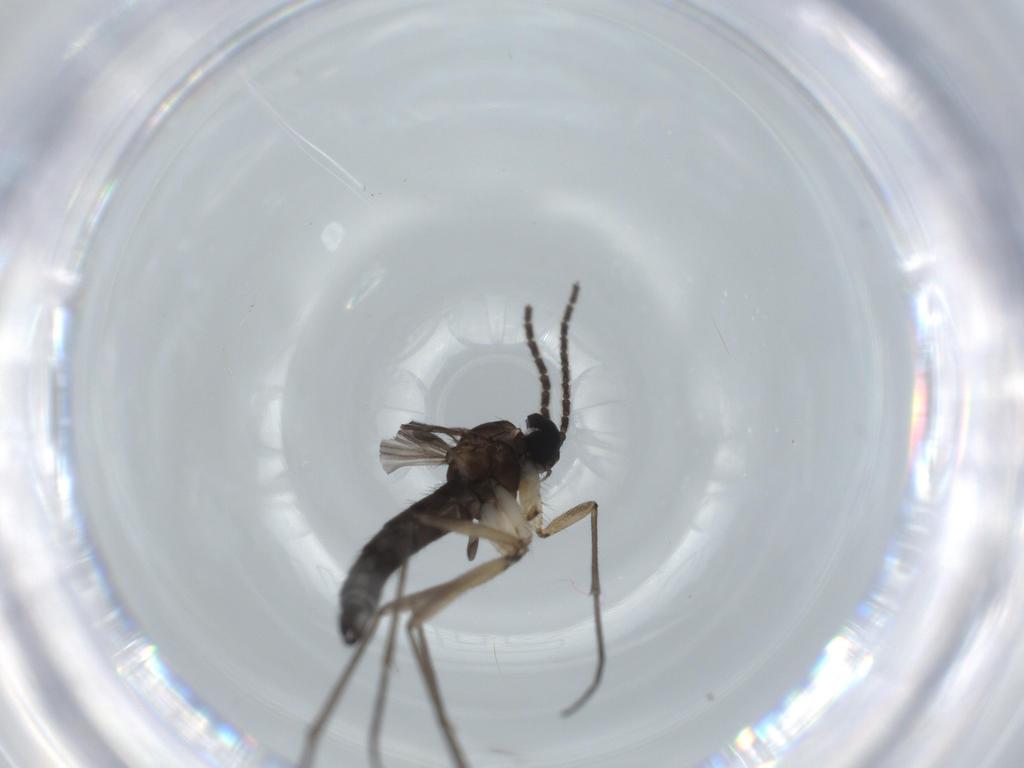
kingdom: Animalia
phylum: Arthropoda
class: Insecta
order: Diptera
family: Sciaridae
